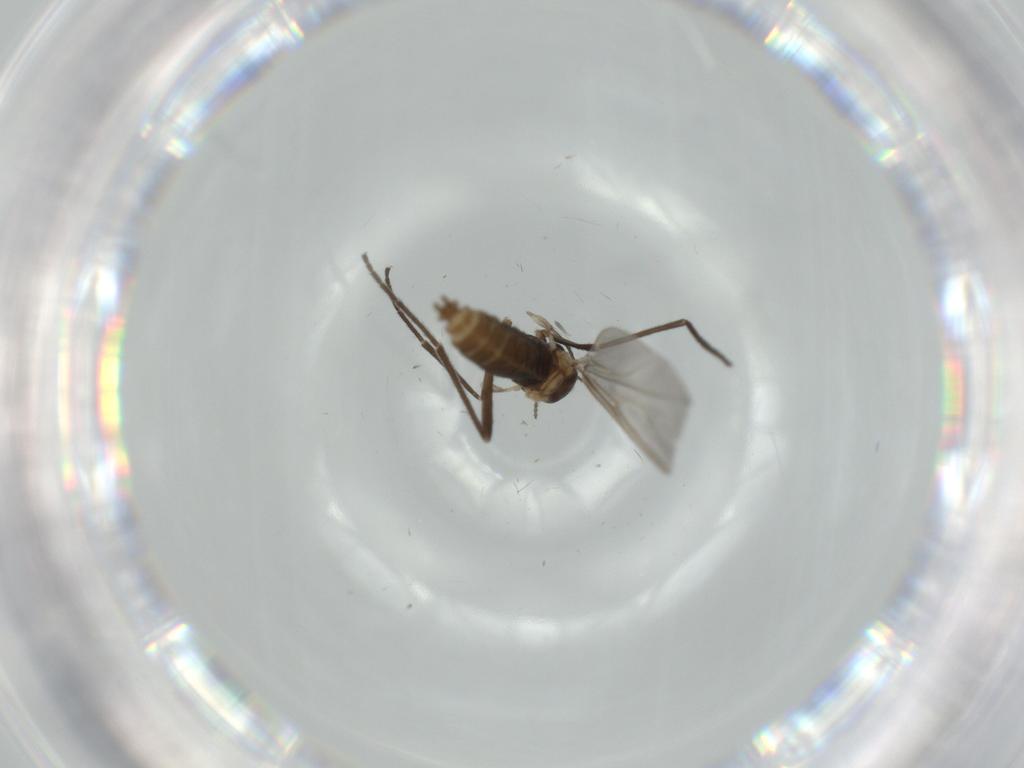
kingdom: Animalia
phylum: Arthropoda
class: Insecta
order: Diptera
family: Cecidomyiidae
